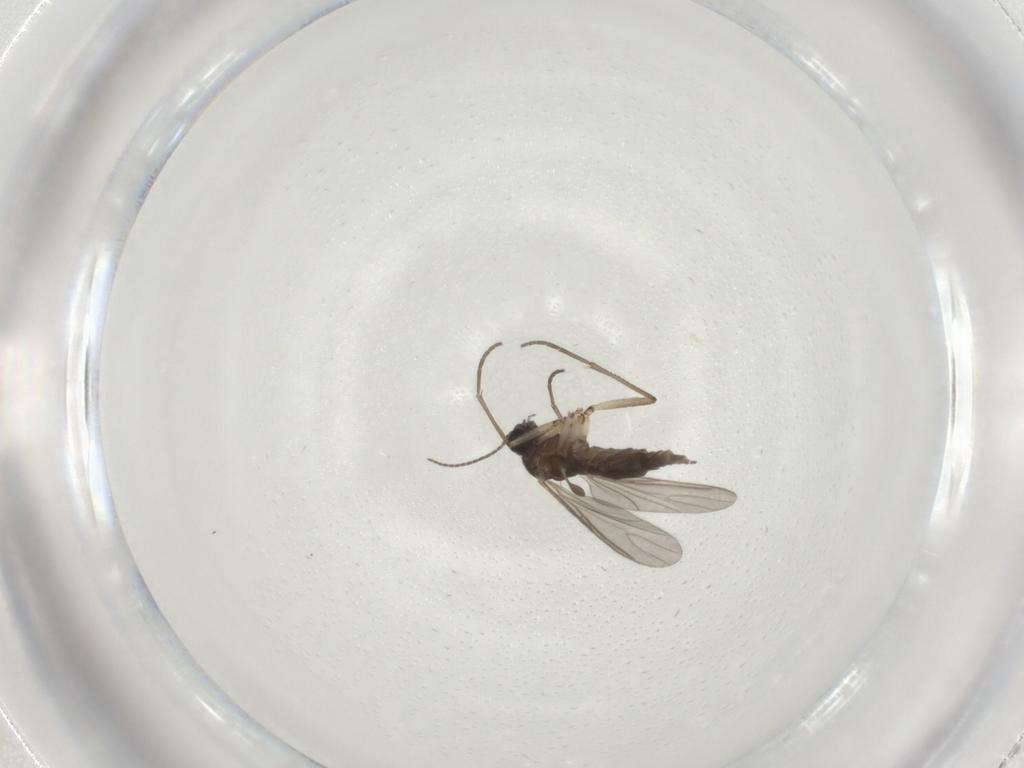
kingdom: Animalia
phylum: Arthropoda
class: Insecta
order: Diptera
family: Sciaridae
